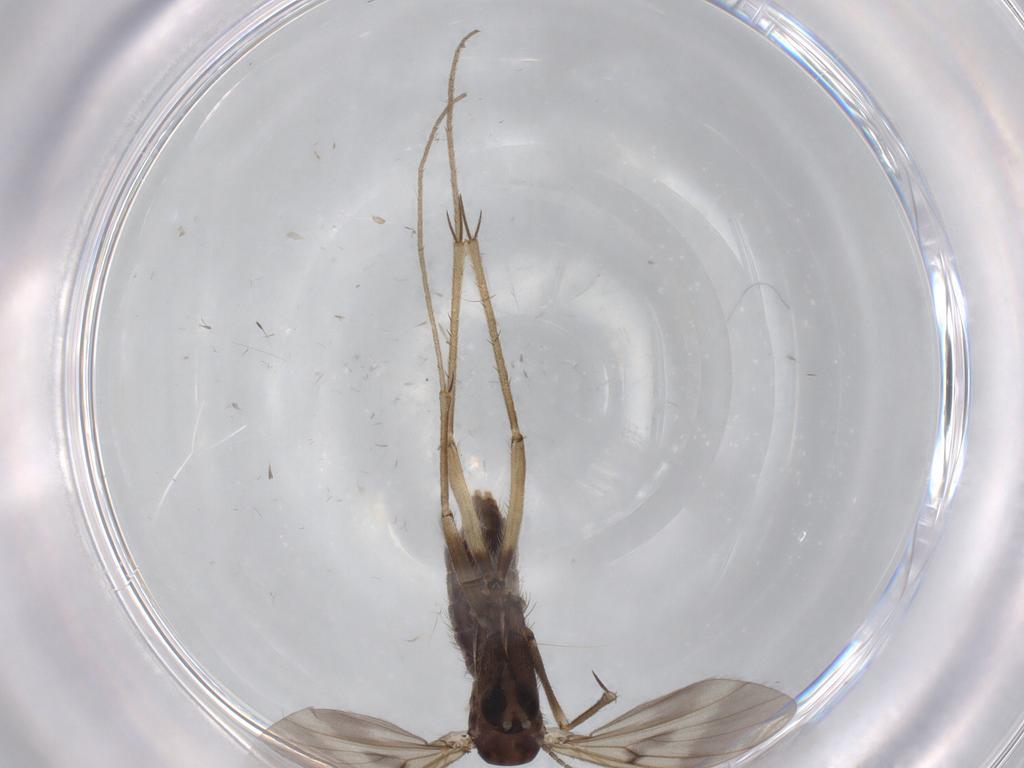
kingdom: Animalia
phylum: Arthropoda
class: Insecta
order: Diptera
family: Cecidomyiidae
